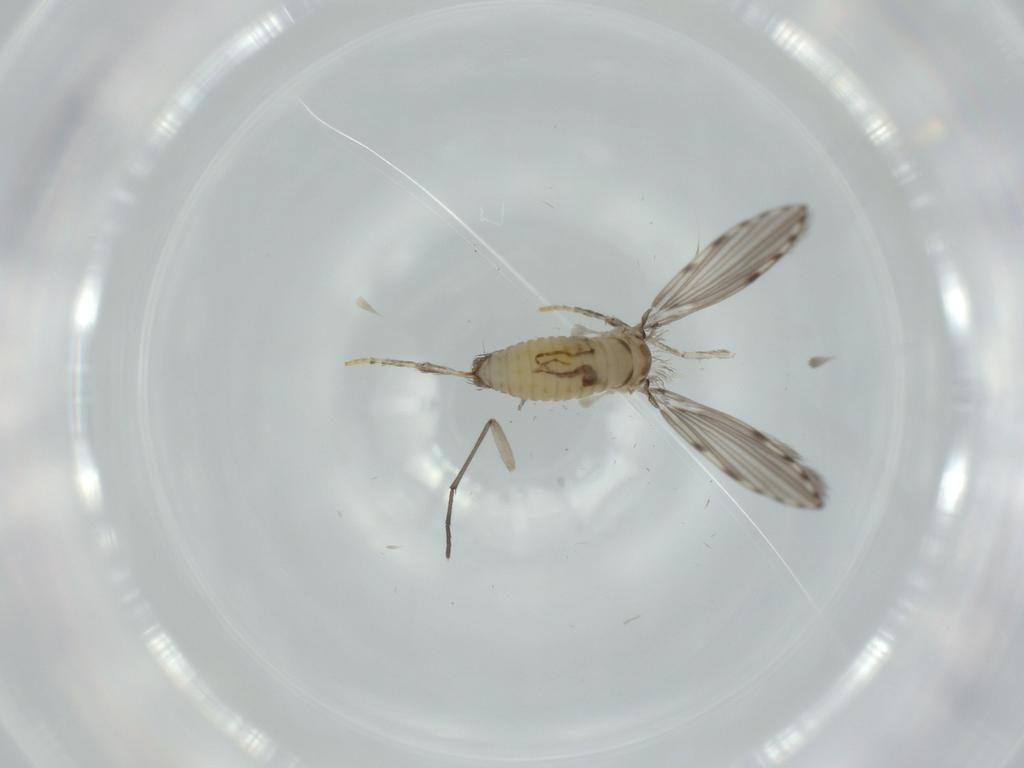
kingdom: Animalia
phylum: Arthropoda
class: Insecta
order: Diptera
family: Psychodidae
